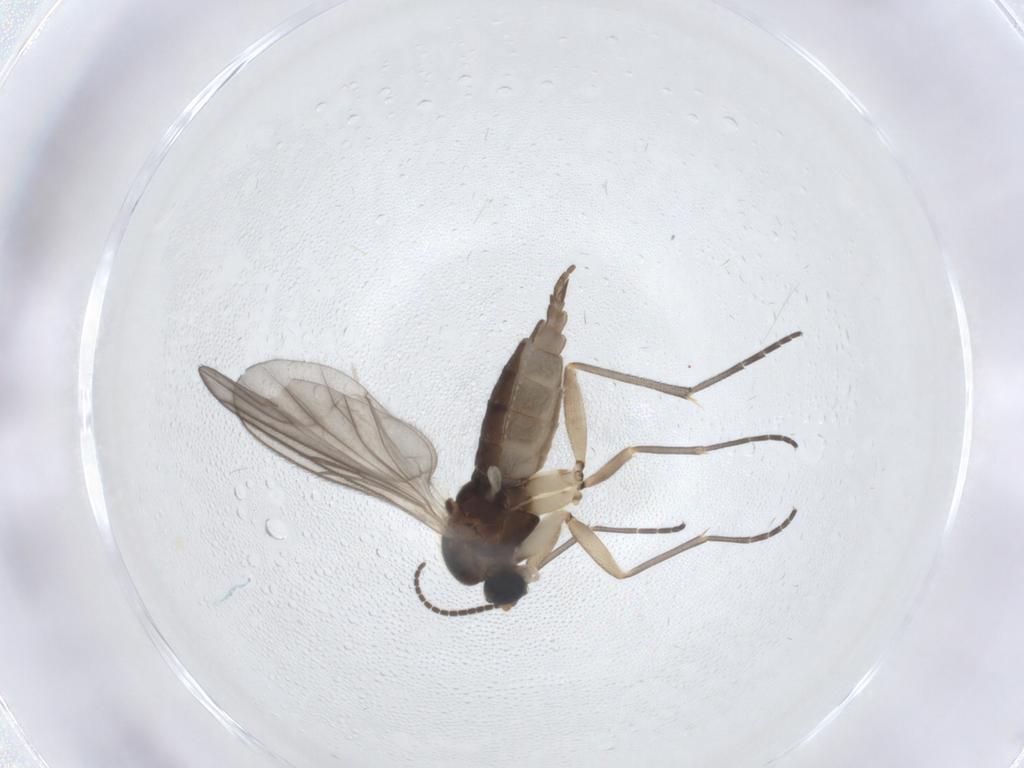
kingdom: Animalia
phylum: Arthropoda
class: Insecta
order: Diptera
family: Sciaridae
